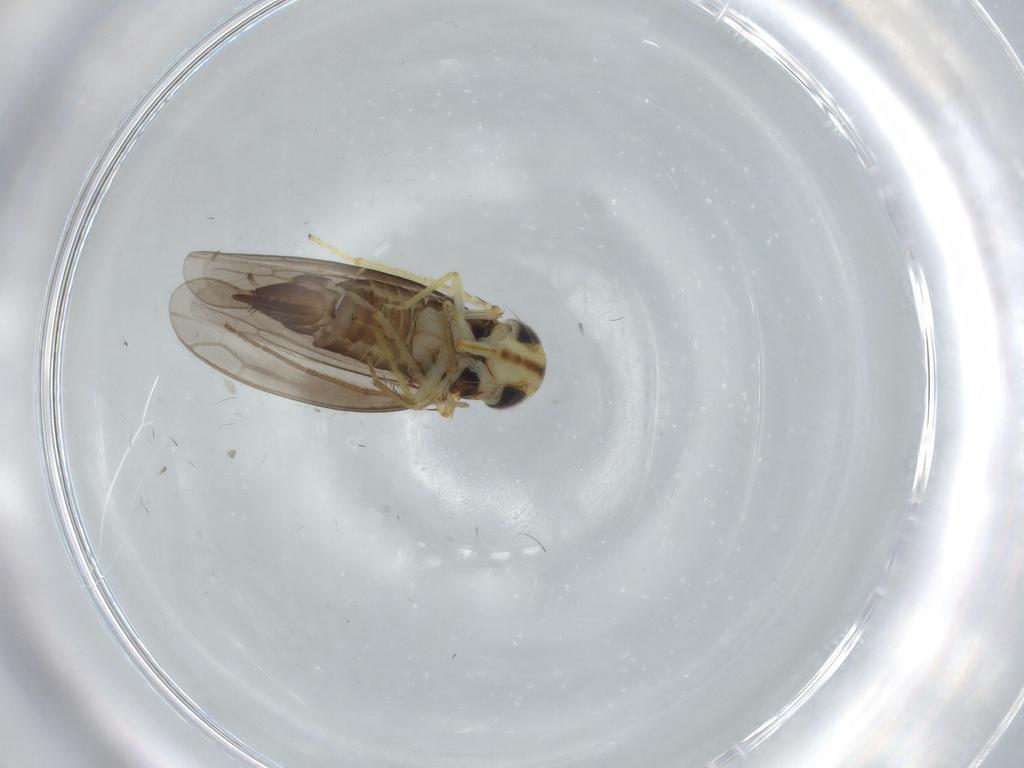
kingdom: Animalia
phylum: Arthropoda
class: Insecta
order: Hemiptera
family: Cicadellidae
